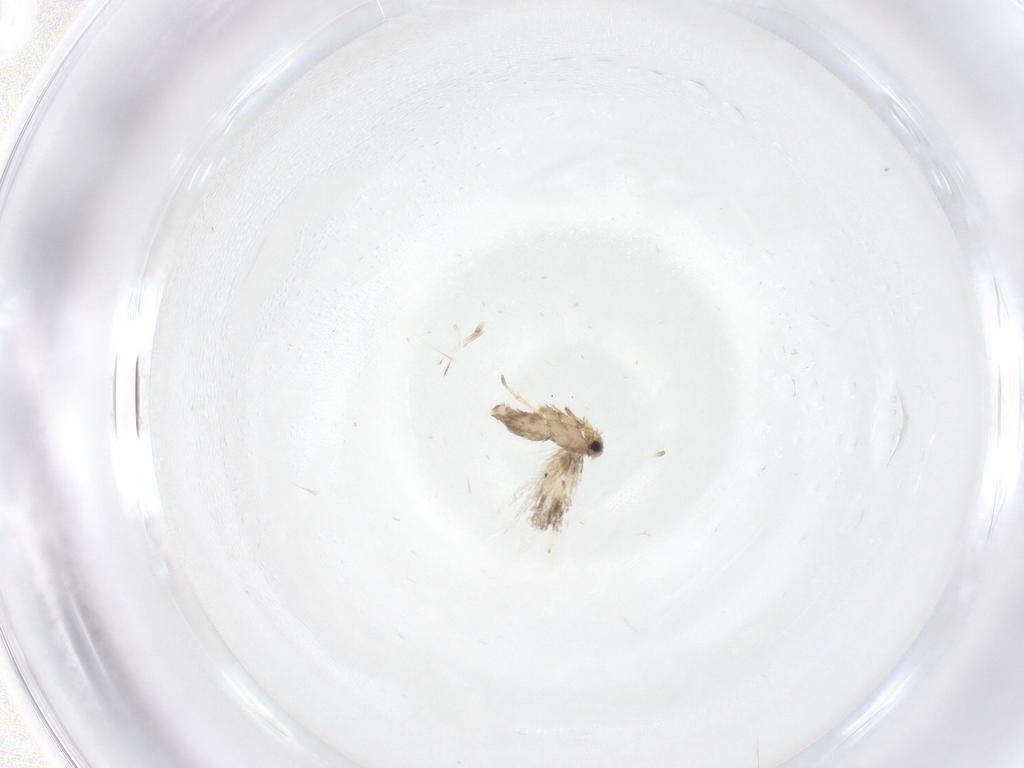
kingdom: Animalia
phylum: Arthropoda
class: Insecta
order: Lepidoptera
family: Nepticulidae
